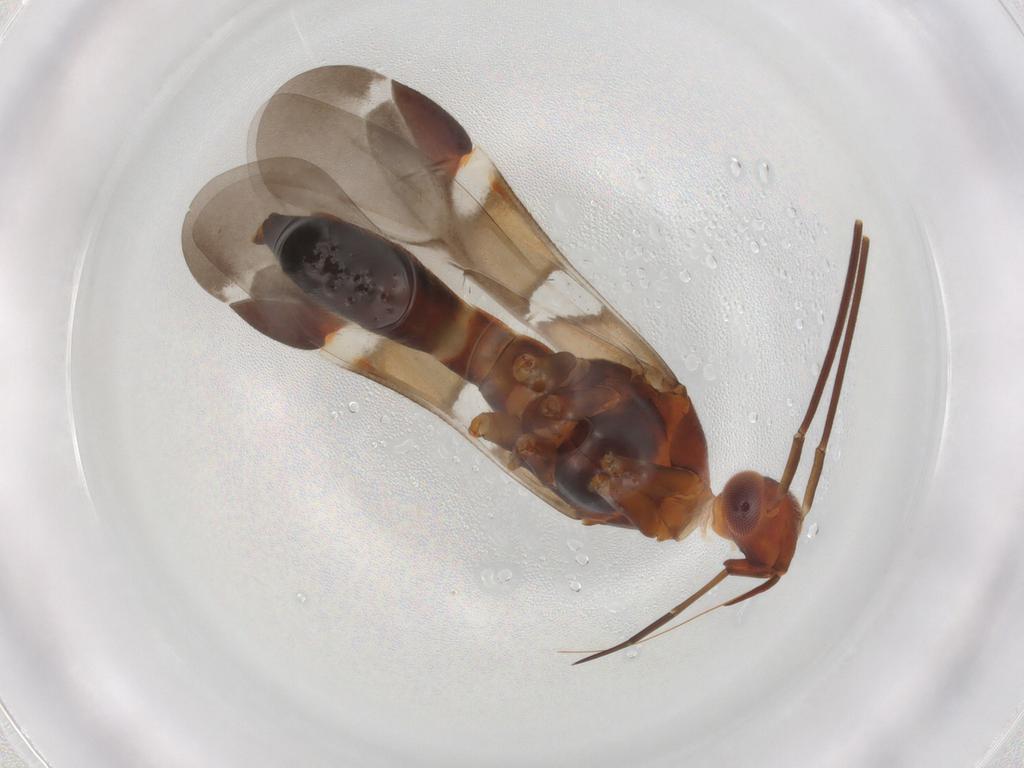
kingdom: Animalia
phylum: Arthropoda
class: Insecta
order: Hemiptera
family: Miridae
